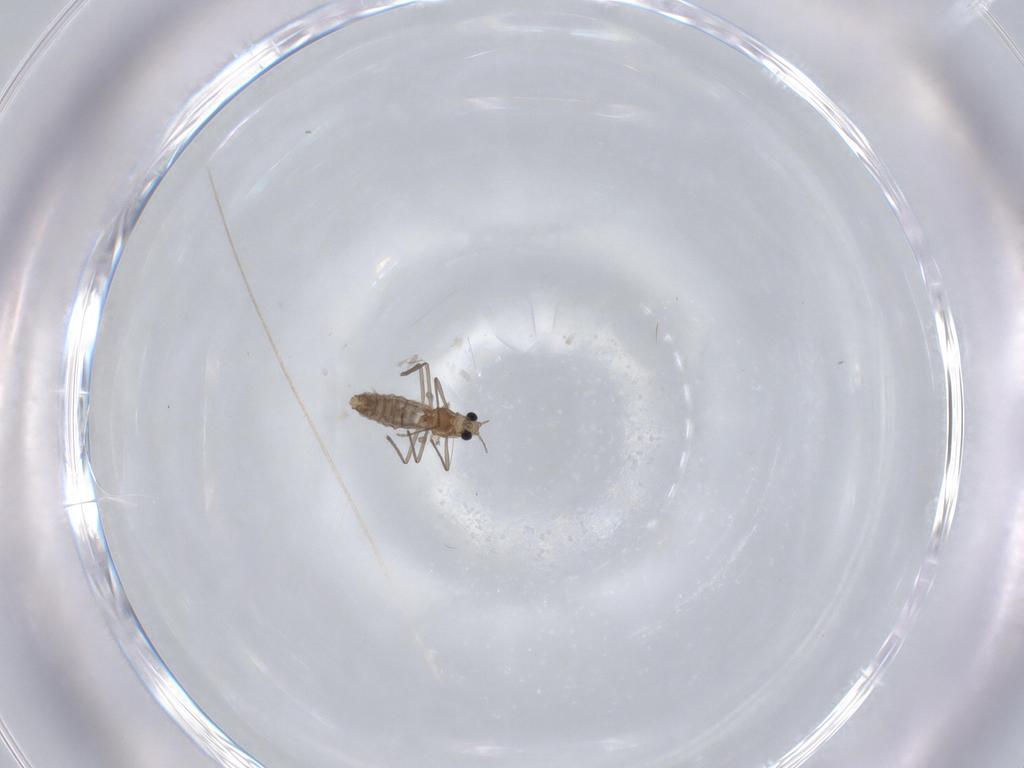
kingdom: Animalia
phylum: Arthropoda
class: Insecta
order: Diptera
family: Chironomidae
